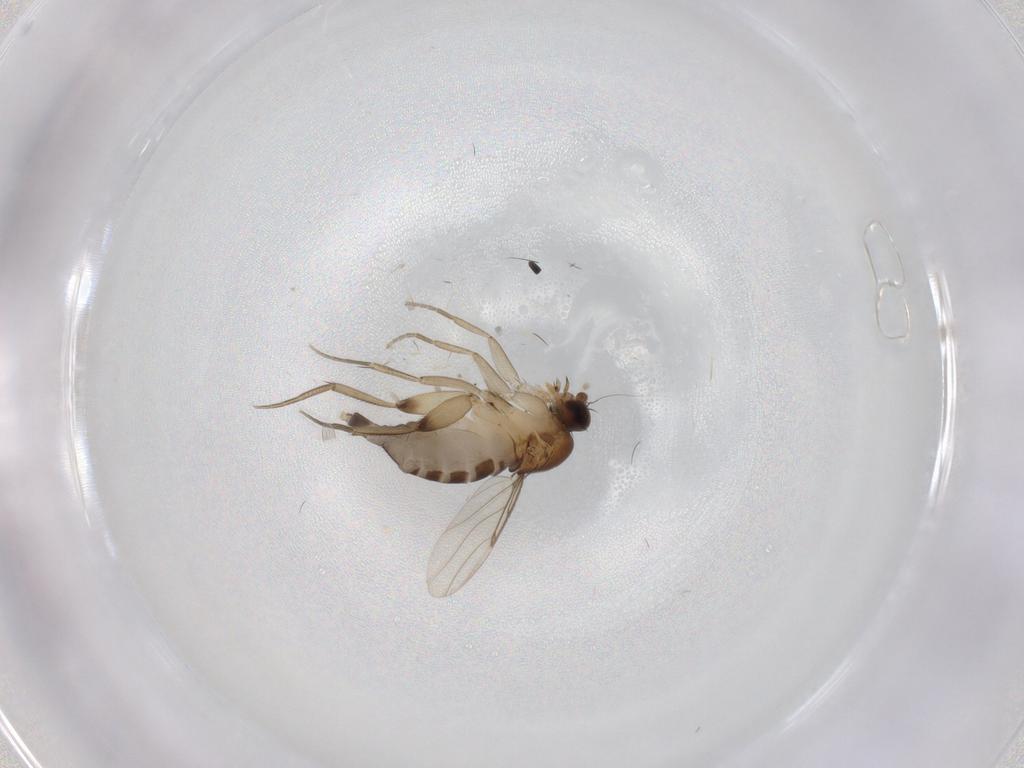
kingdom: Animalia
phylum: Arthropoda
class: Insecta
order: Diptera
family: Phoridae
